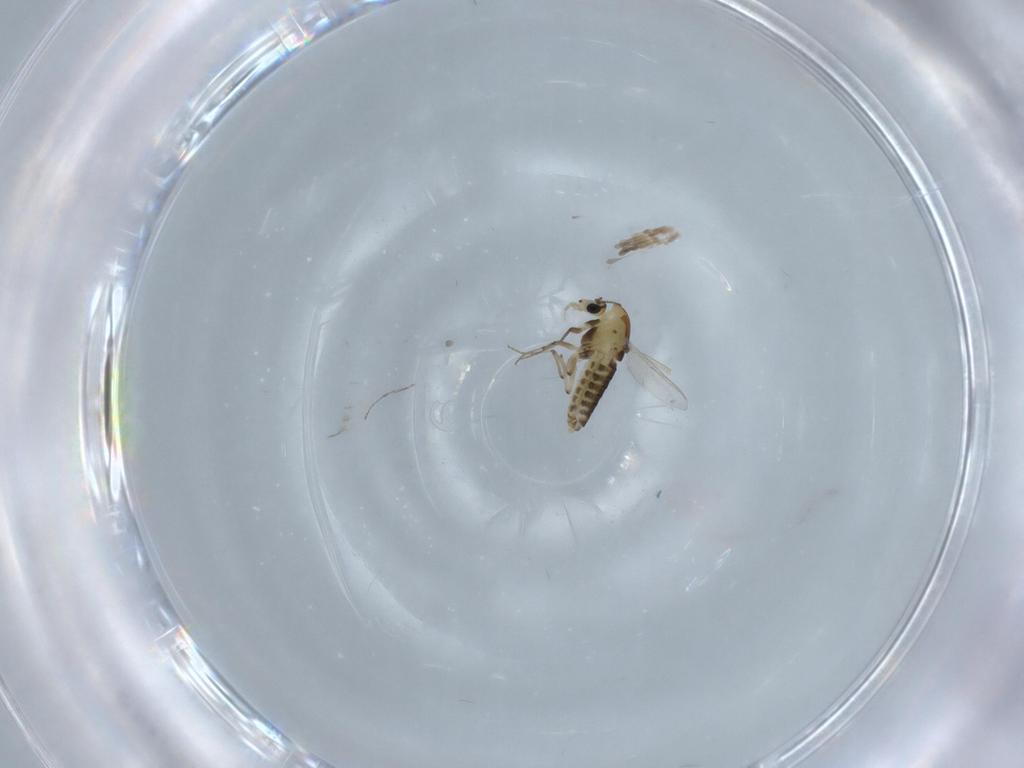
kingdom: Animalia
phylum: Arthropoda
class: Insecta
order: Diptera
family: Chironomidae
